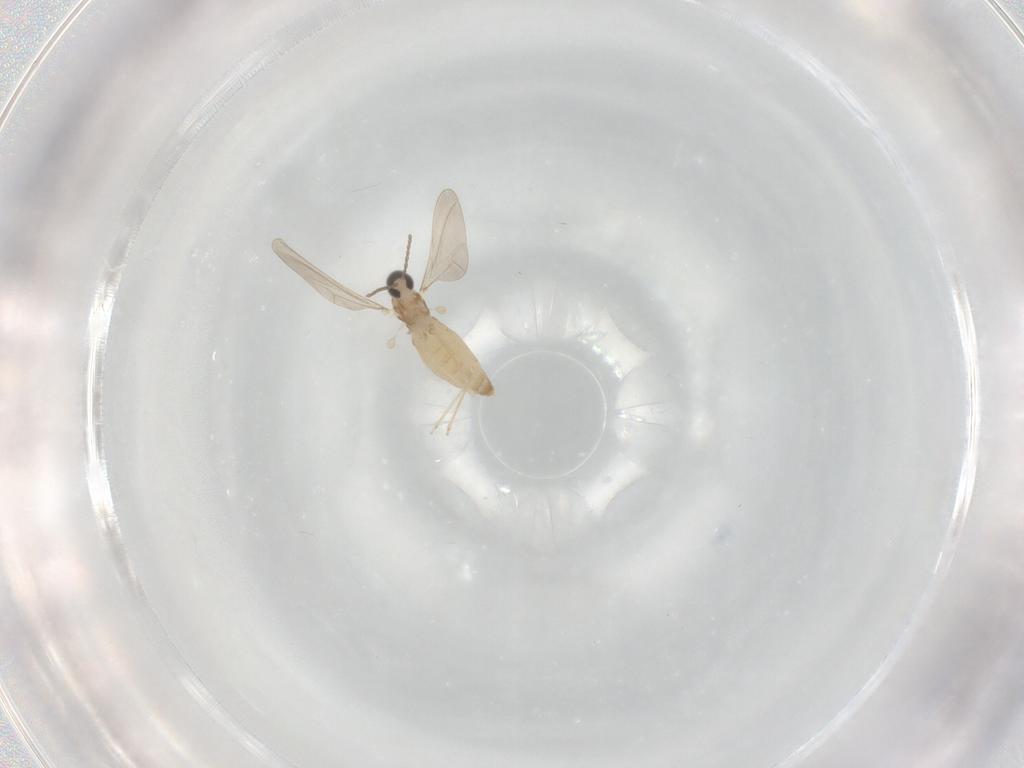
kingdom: Animalia
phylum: Arthropoda
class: Insecta
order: Diptera
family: Cecidomyiidae
